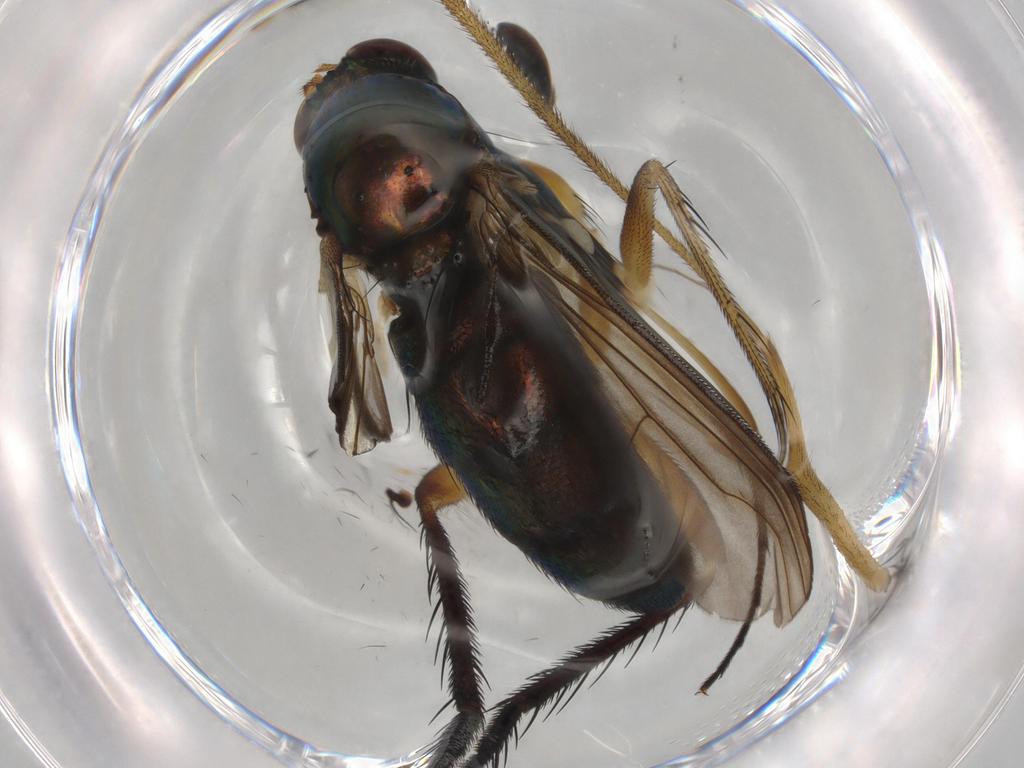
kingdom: Animalia
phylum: Arthropoda
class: Insecta
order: Diptera
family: Dolichopodidae
